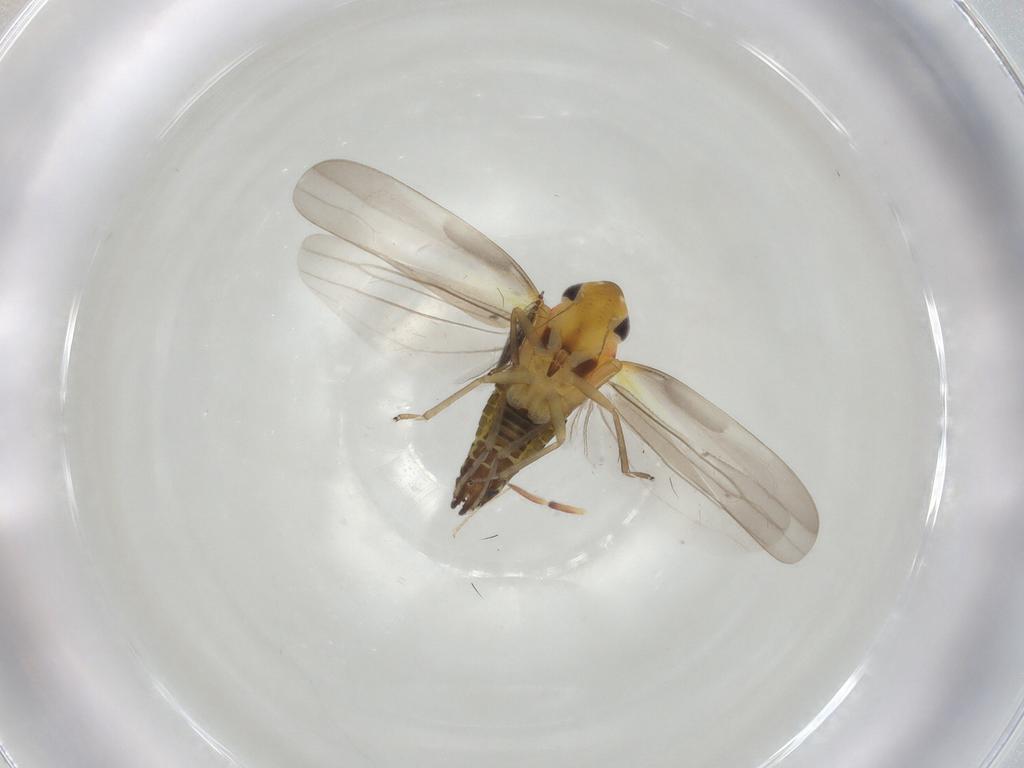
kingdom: Animalia
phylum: Arthropoda
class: Insecta
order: Hemiptera
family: Cicadellidae
